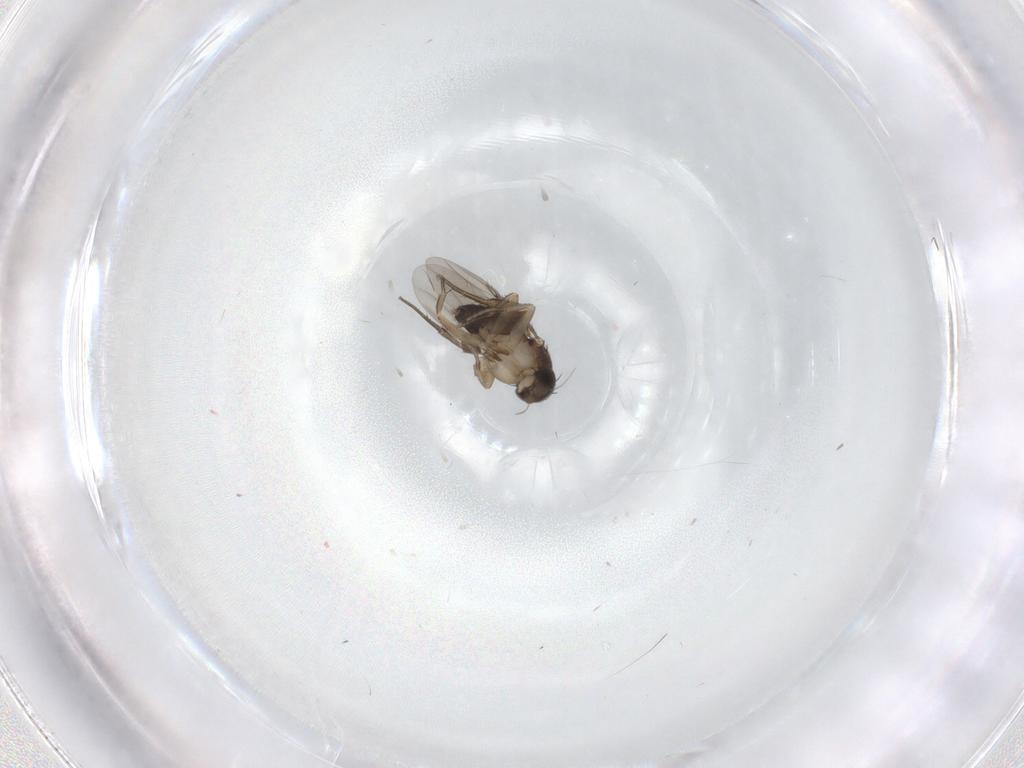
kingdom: Animalia
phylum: Arthropoda
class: Insecta
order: Diptera
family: Phoridae
